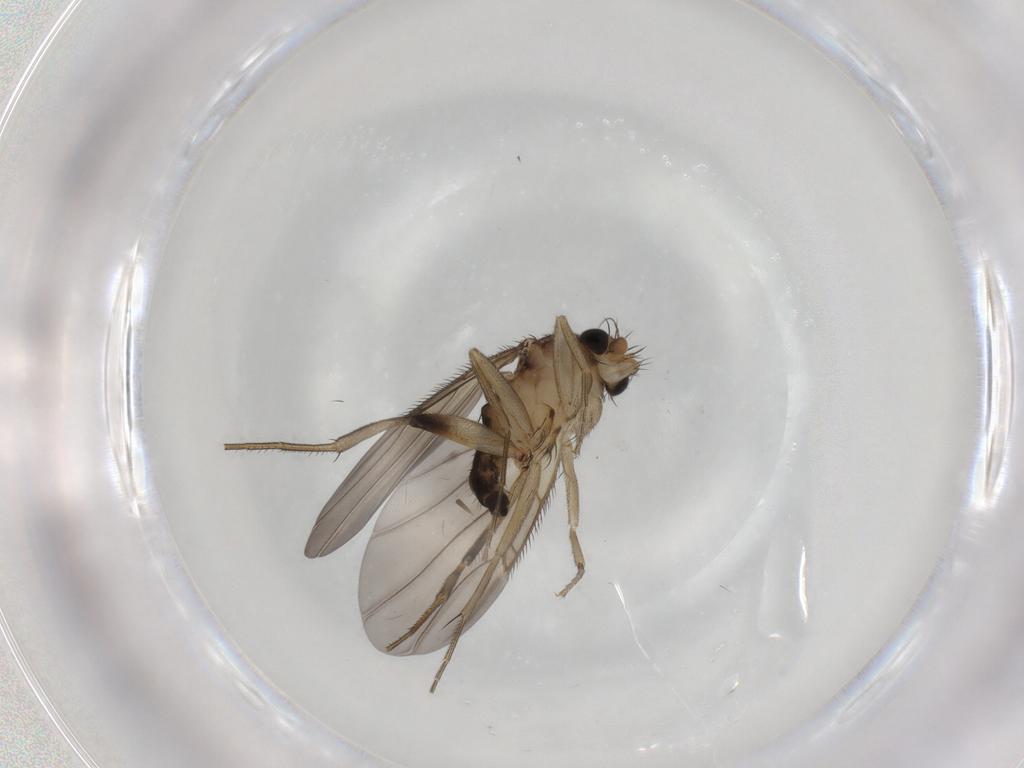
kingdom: Animalia
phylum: Arthropoda
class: Insecta
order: Diptera
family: Phoridae
